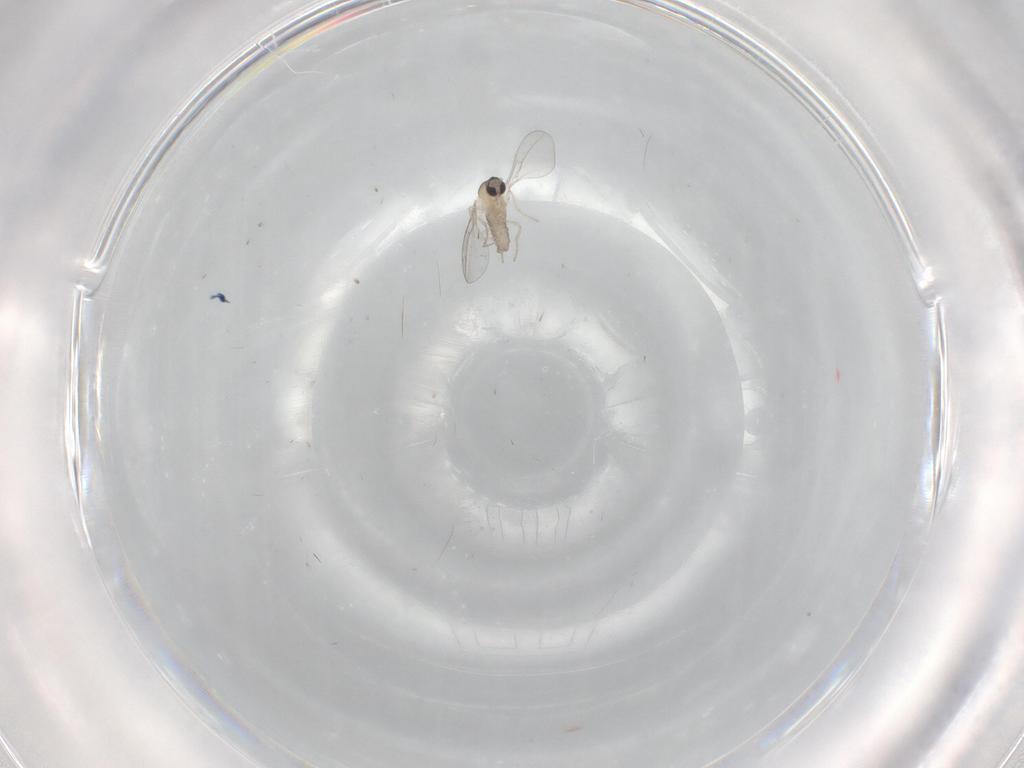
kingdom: Animalia
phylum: Arthropoda
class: Insecta
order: Diptera
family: Cecidomyiidae
